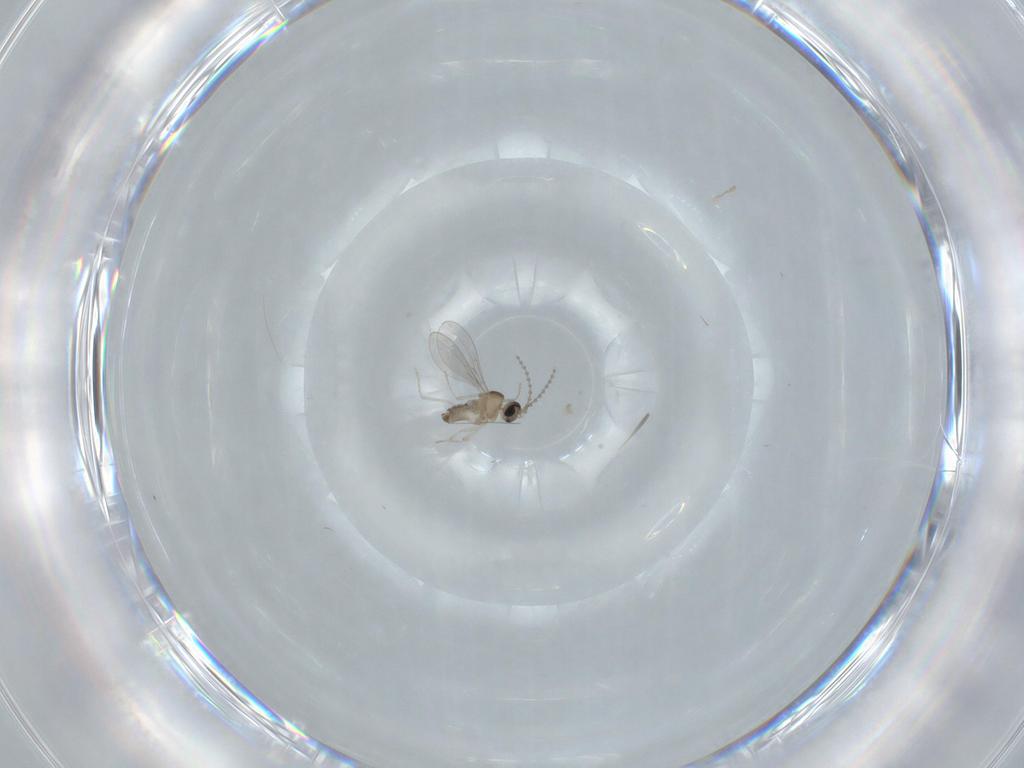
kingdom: Animalia
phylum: Arthropoda
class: Insecta
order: Diptera
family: Cecidomyiidae
